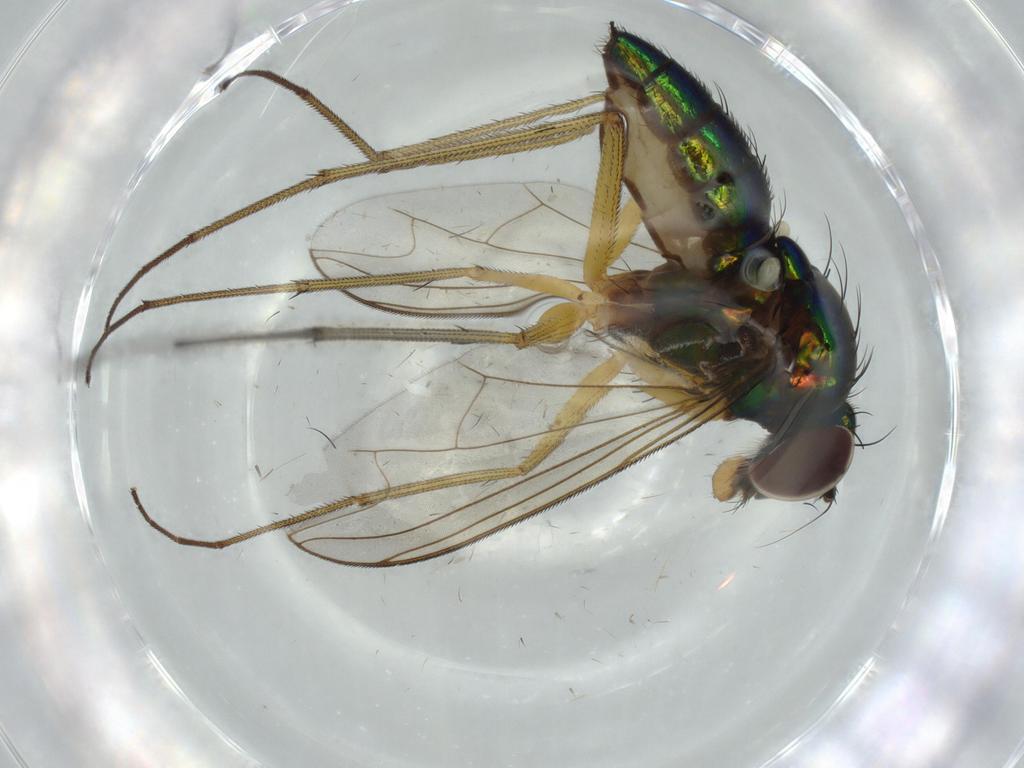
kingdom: Animalia
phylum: Arthropoda
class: Insecta
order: Diptera
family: Dolichopodidae
